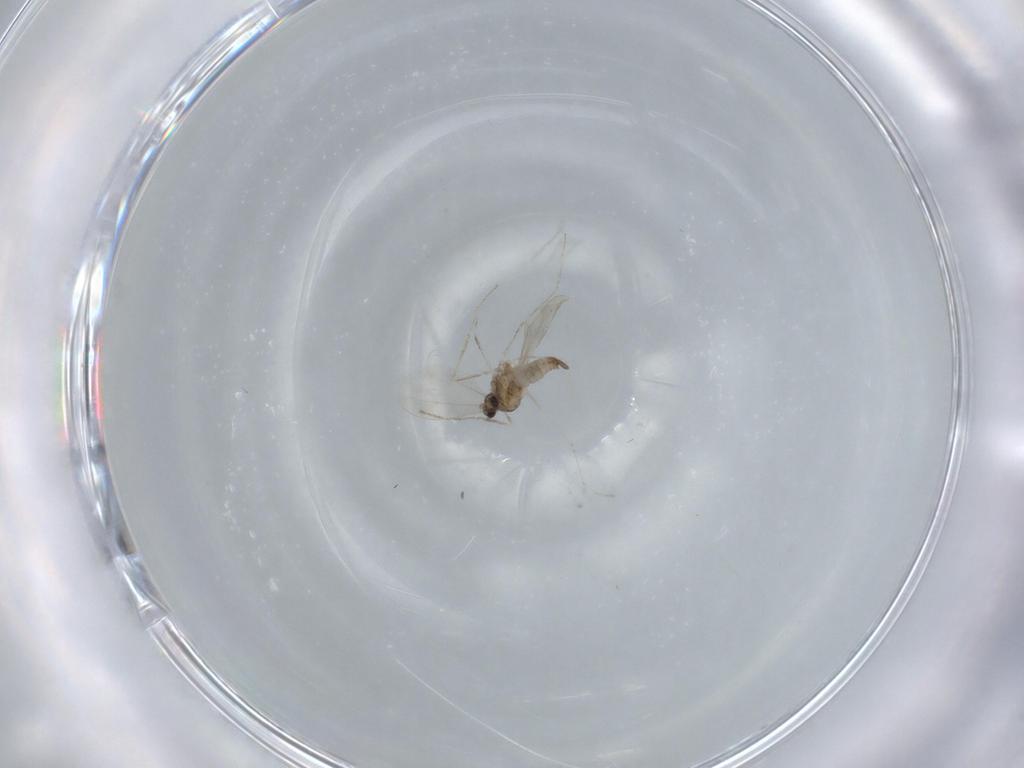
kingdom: Animalia
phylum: Arthropoda
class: Insecta
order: Diptera
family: Cecidomyiidae
